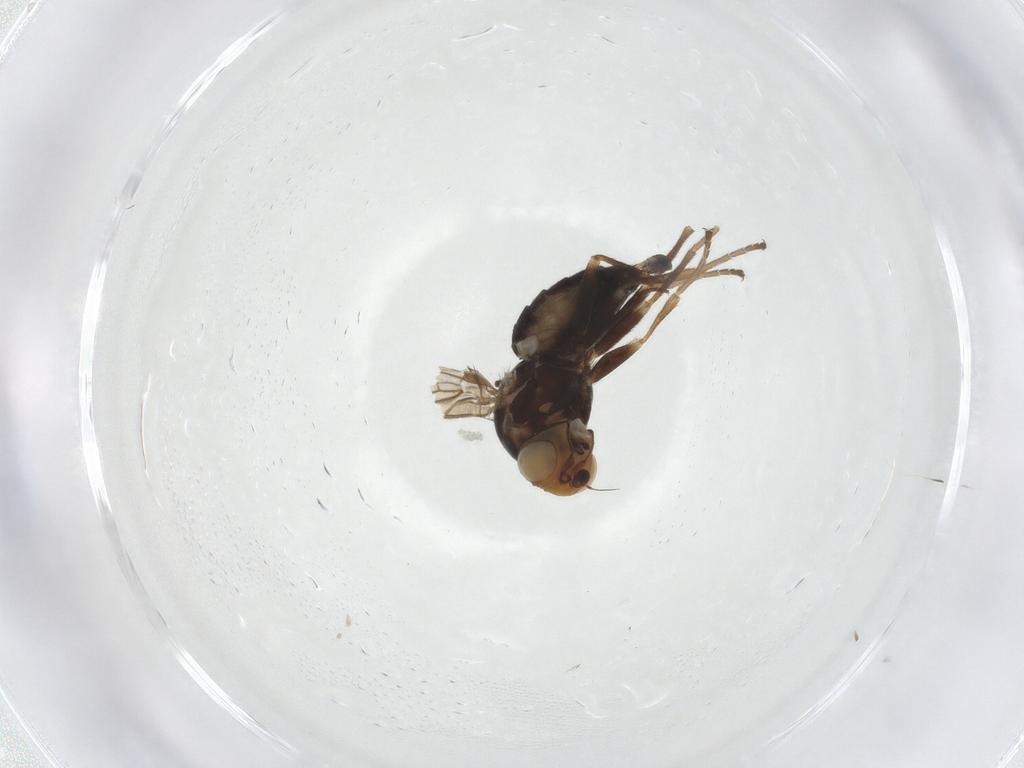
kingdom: Animalia
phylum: Arthropoda
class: Insecta
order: Diptera
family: Agromyzidae
